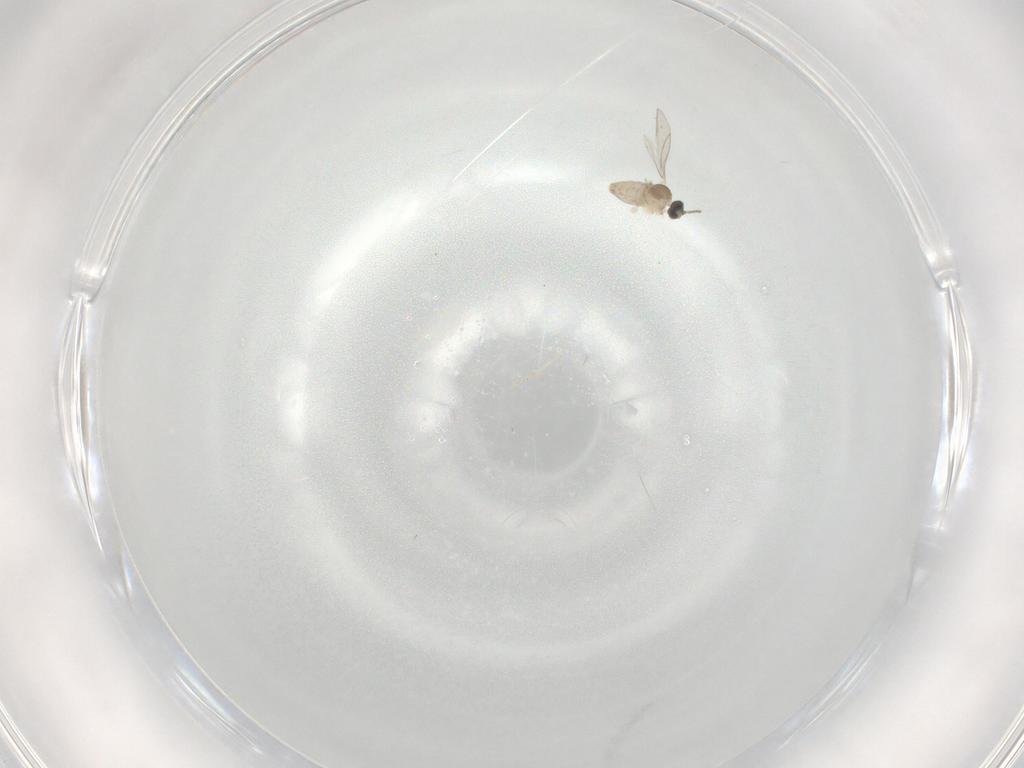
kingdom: Animalia
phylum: Arthropoda
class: Insecta
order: Diptera
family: Cecidomyiidae
